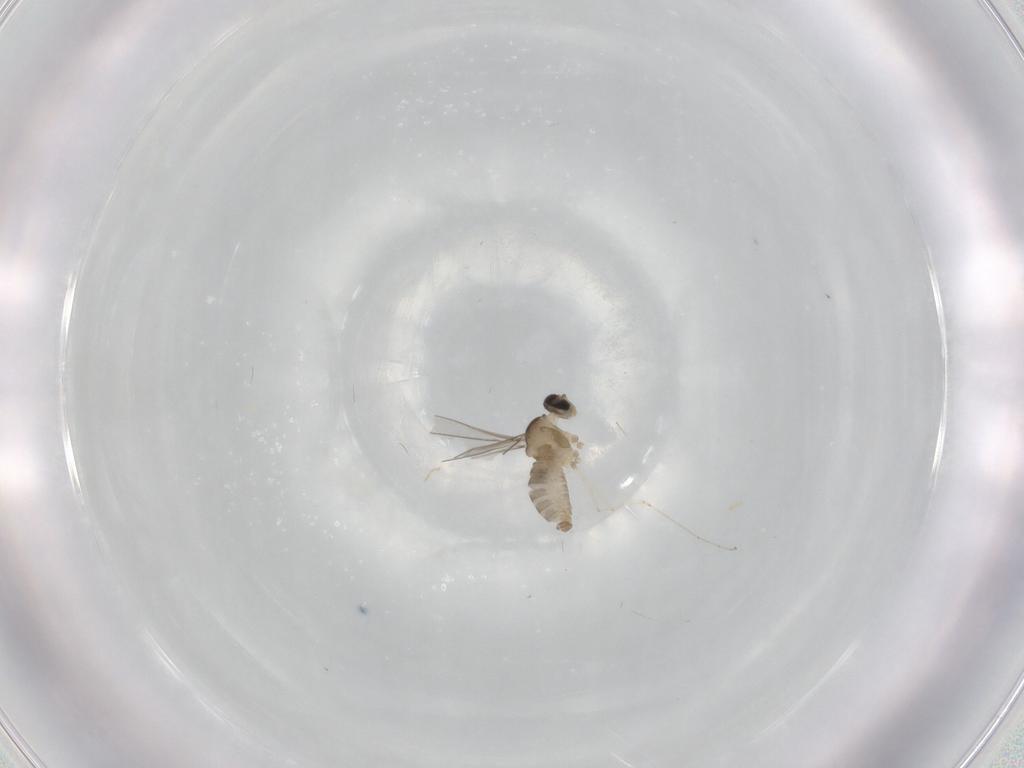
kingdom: Animalia
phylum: Arthropoda
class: Insecta
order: Diptera
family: Cecidomyiidae
